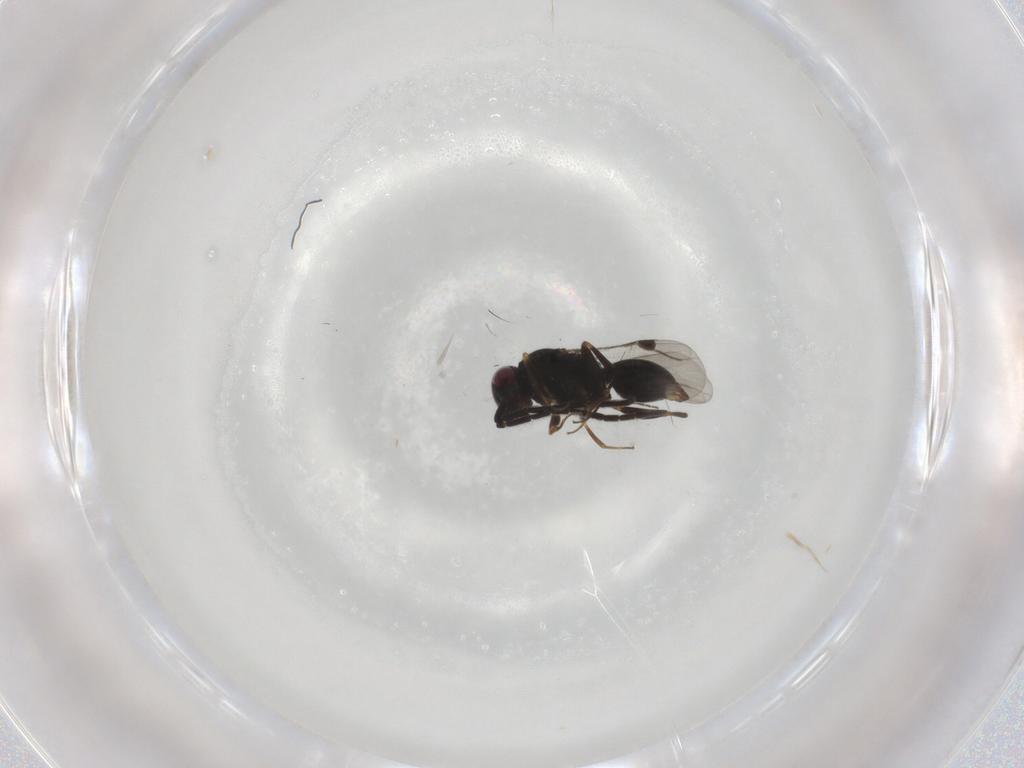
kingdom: Animalia
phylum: Arthropoda
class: Insecta
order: Hymenoptera
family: Megaspilidae
